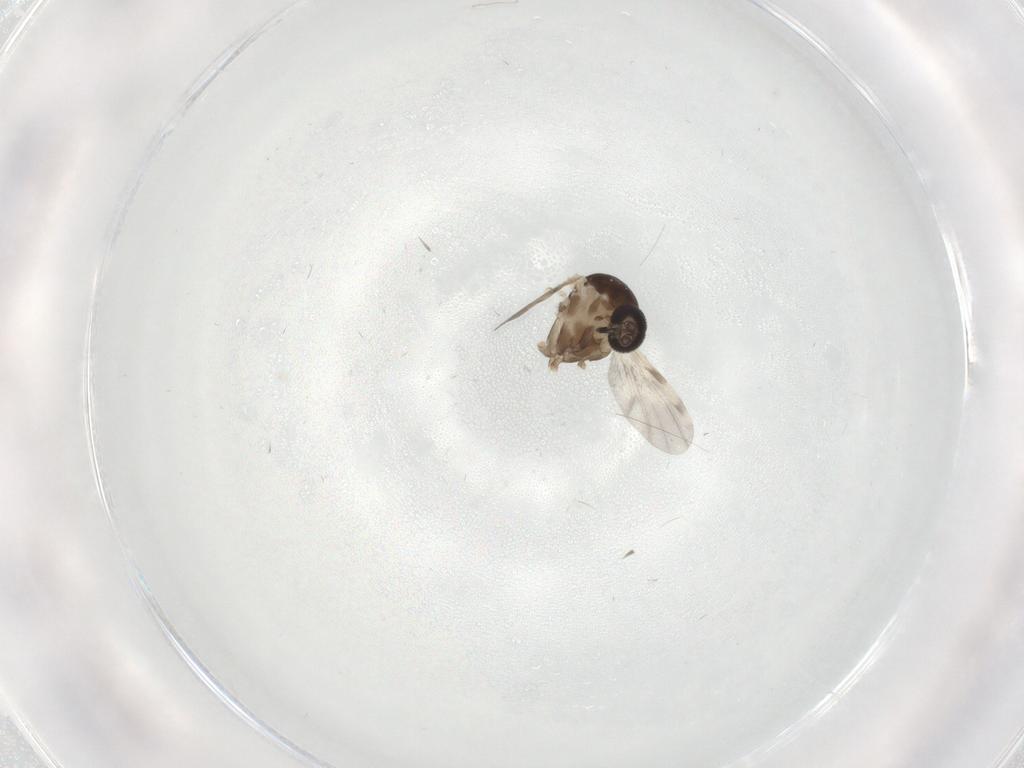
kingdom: Animalia
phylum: Arthropoda
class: Insecta
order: Diptera
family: Ceratopogonidae
